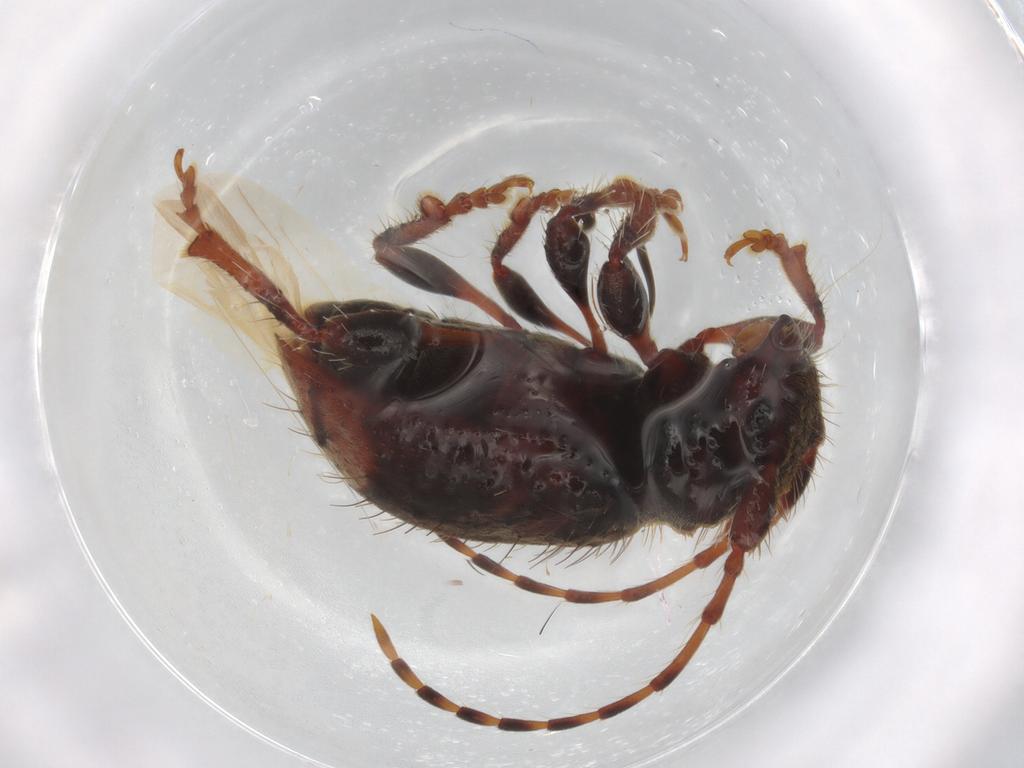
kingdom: Animalia
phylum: Arthropoda
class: Insecta
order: Coleoptera
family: Cerambycidae
